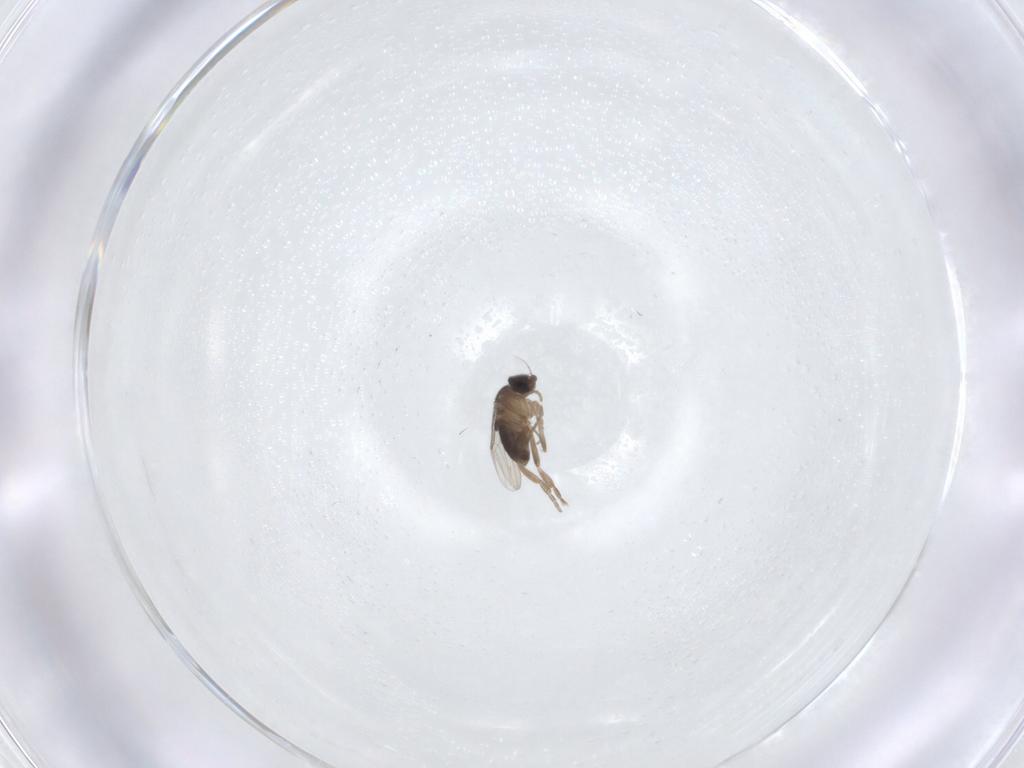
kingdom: Animalia
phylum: Arthropoda
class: Insecta
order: Diptera
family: Phoridae
